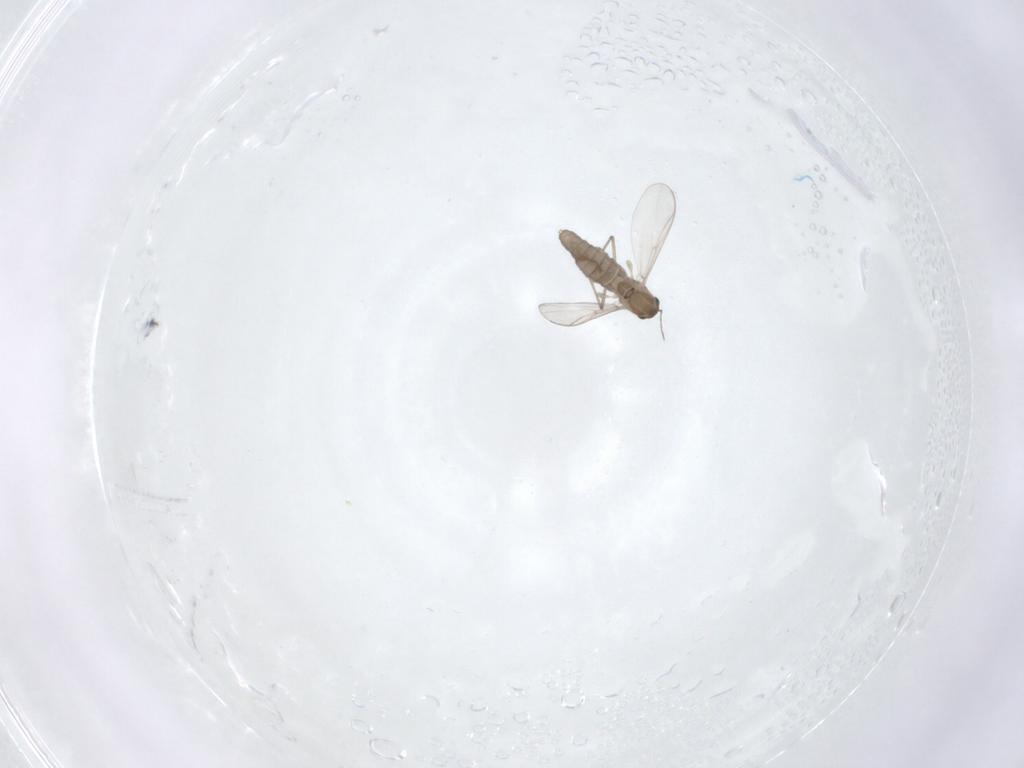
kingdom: Animalia
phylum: Arthropoda
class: Insecta
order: Diptera
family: Chironomidae
